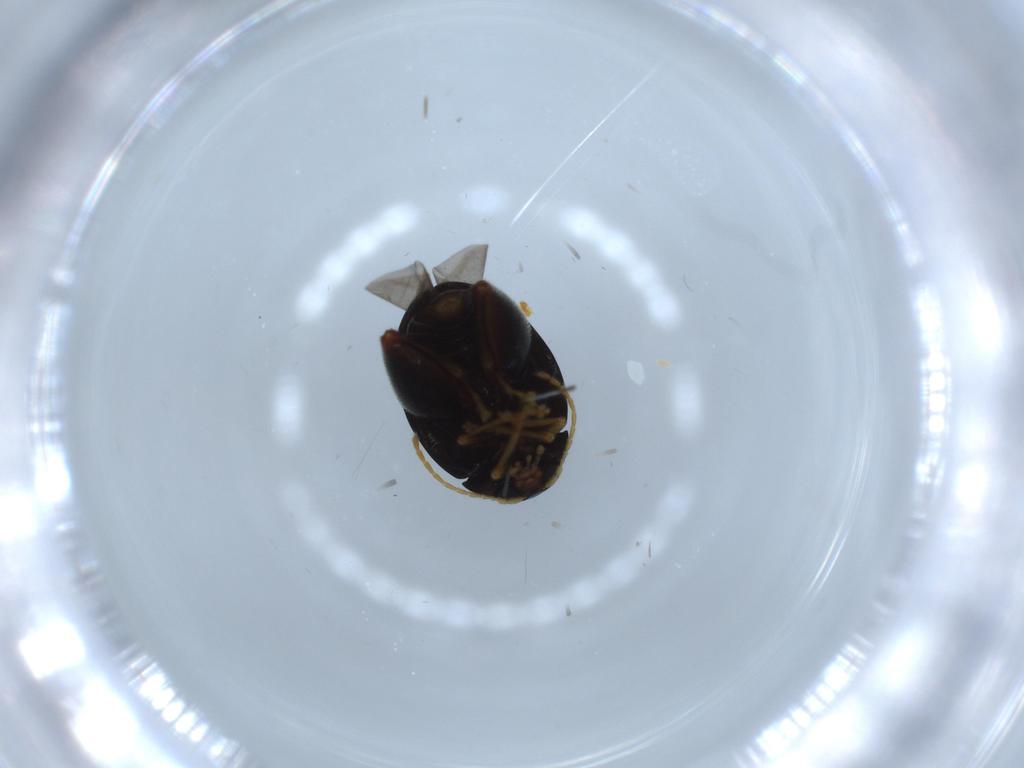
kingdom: Animalia
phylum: Arthropoda
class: Insecta
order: Coleoptera
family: Chrysomelidae
